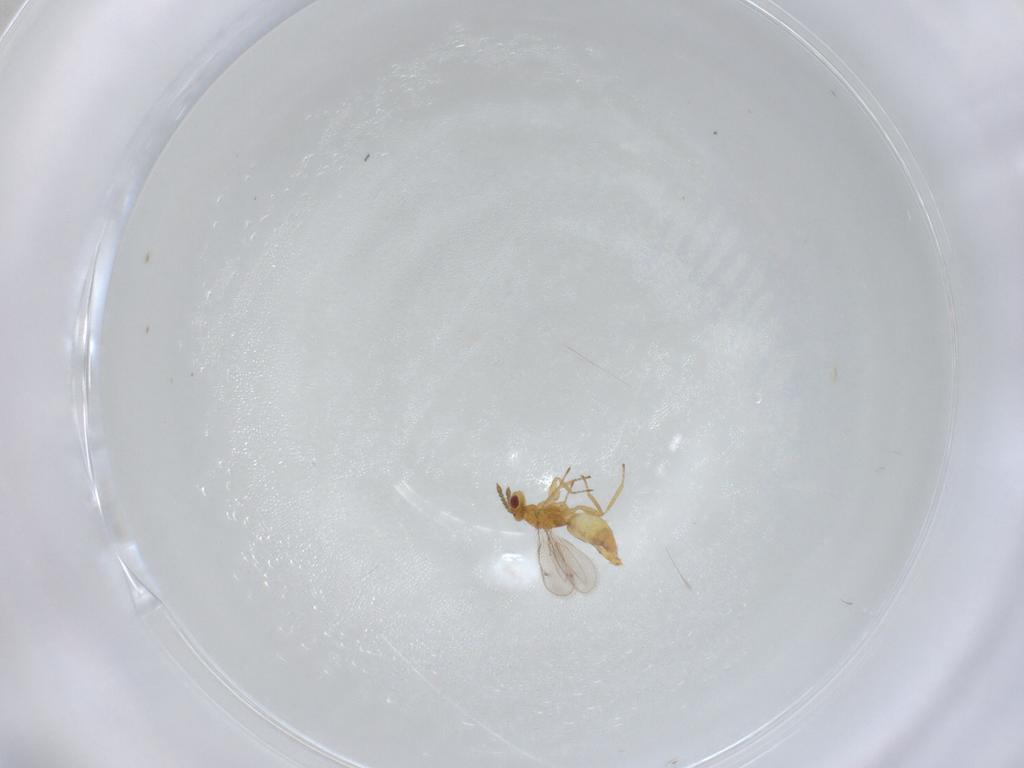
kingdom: Animalia
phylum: Arthropoda
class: Insecta
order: Hymenoptera
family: Eulophidae
